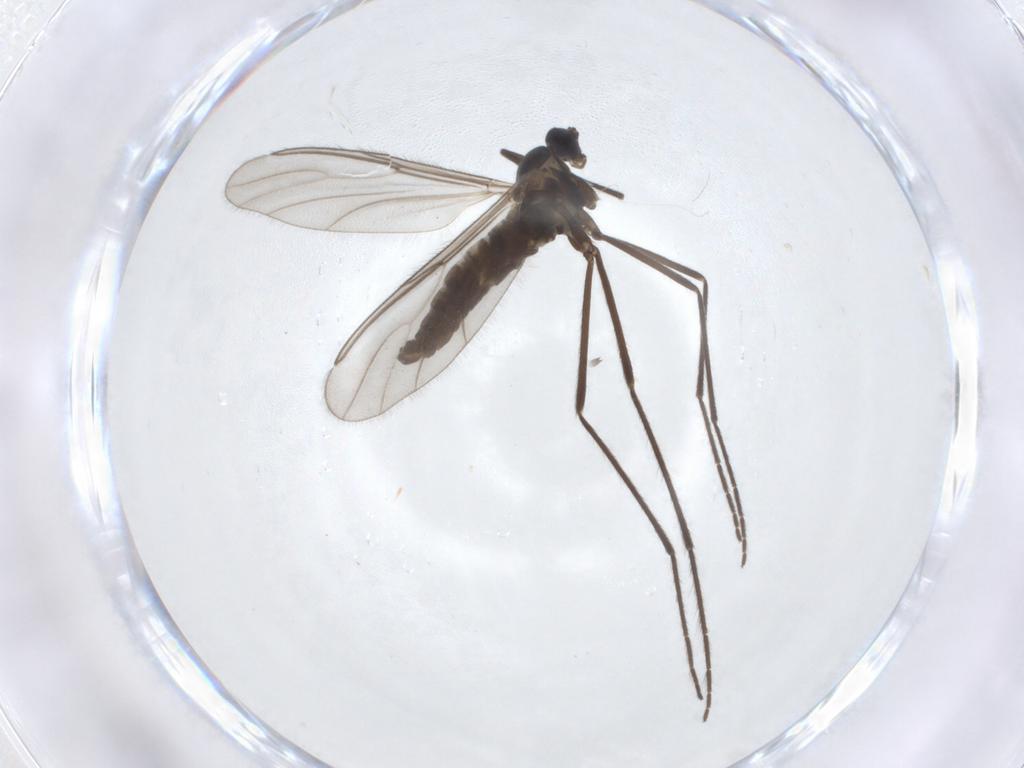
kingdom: Animalia
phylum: Arthropoda
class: Insecta
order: Diptera
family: Cecidomyiidae
